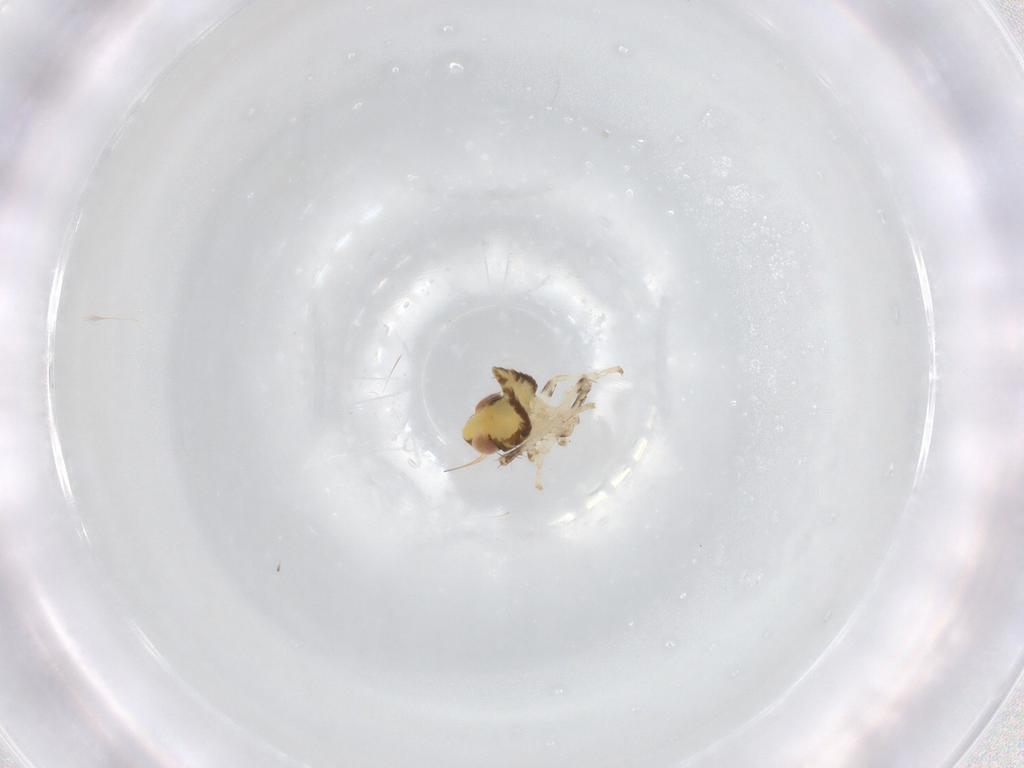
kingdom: Animalia
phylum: Arthropoda
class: Insecta
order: Hemiptera
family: Cicadellidae
